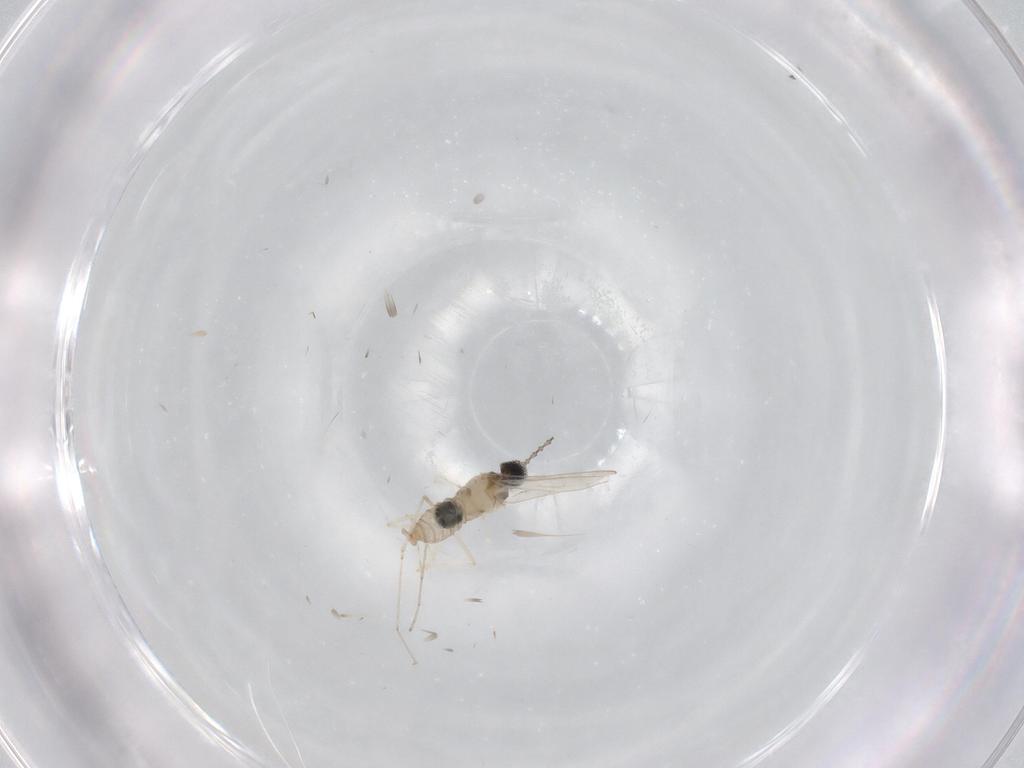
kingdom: Animalia
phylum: Arthropoda
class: Insecta
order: Diptera
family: Cecidomyiidae
